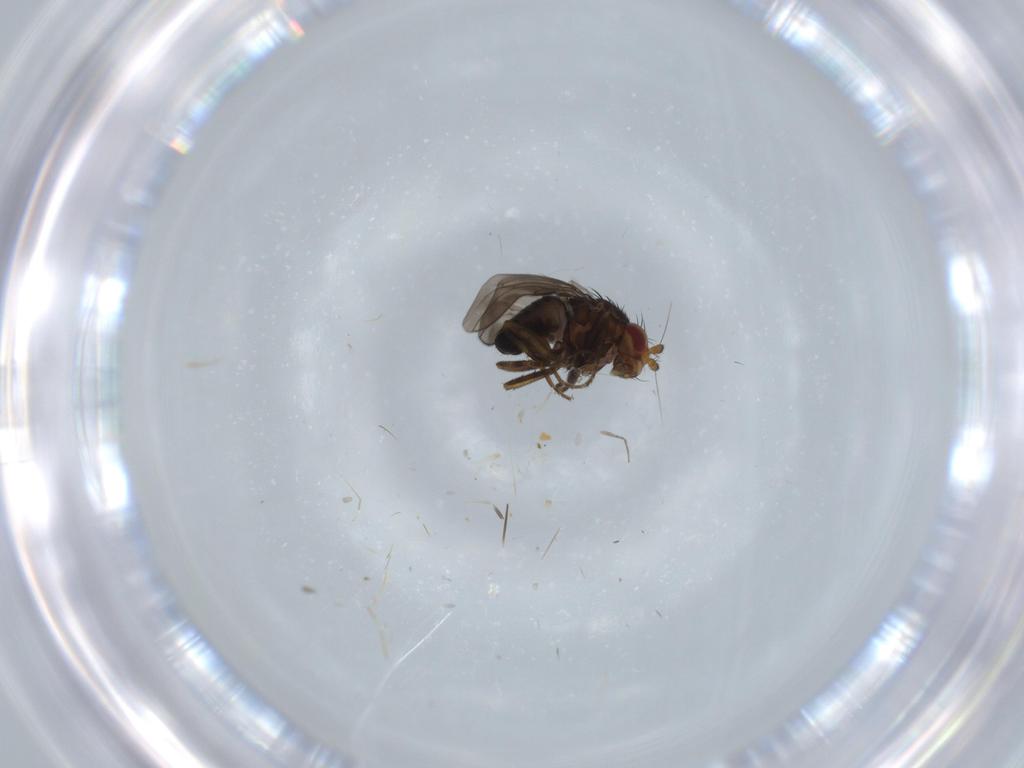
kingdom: Animalia
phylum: Arthropoda
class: Insecta
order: Diptera
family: Sphaeroceridae
